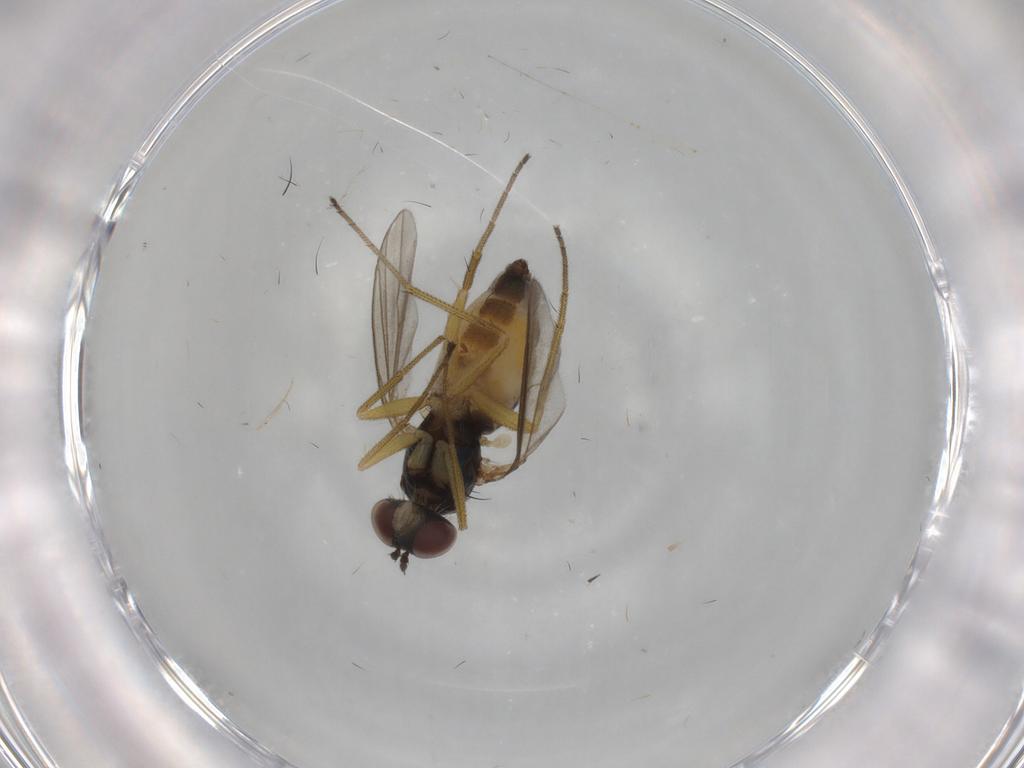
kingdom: Animalia
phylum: Arthropoda
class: Insecta
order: Diptera
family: Dolichopodidae
